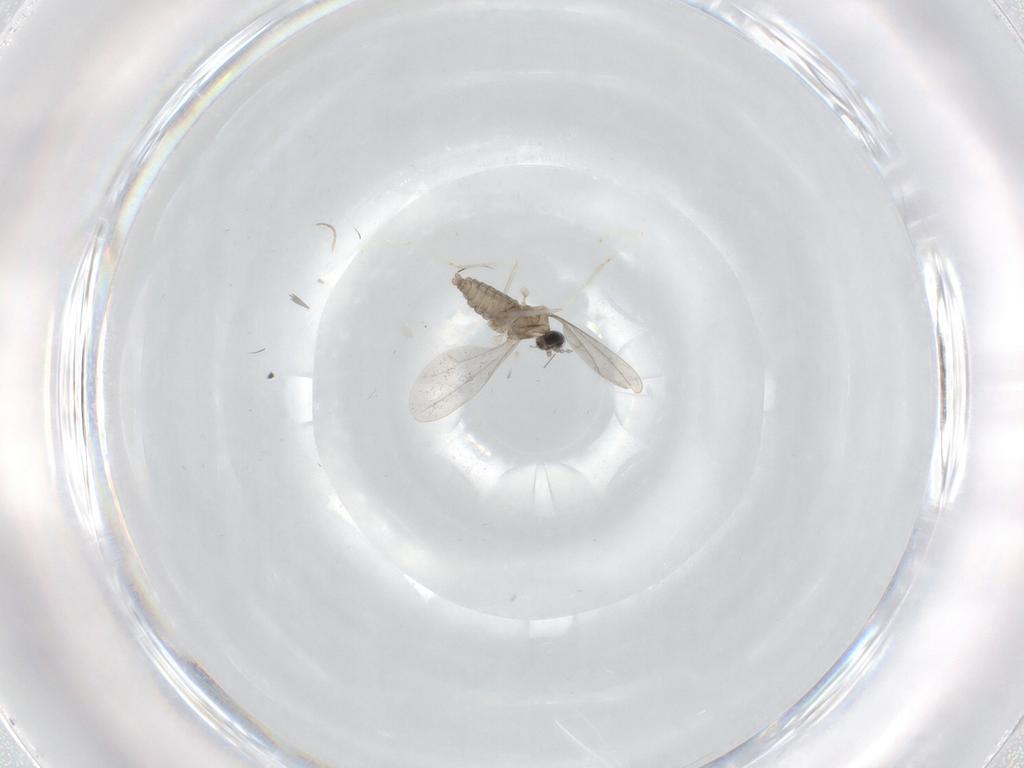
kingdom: Animalia
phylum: Arthropoda
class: Insecta
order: Diptera
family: Cecidomyiidae
